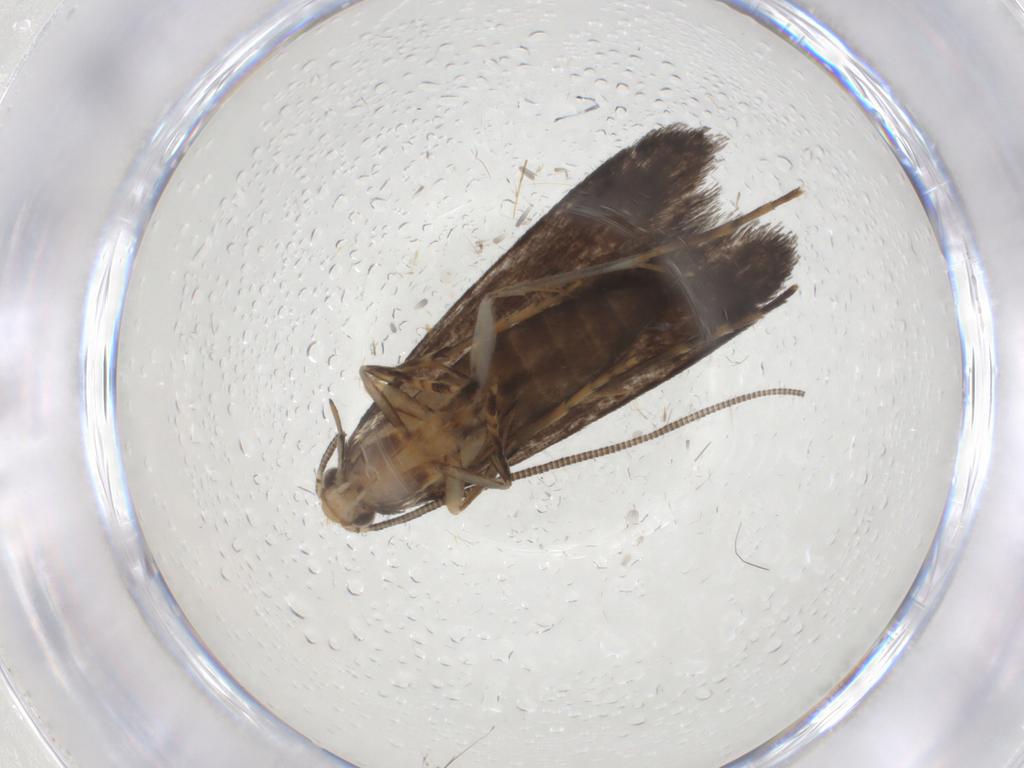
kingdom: Animalia
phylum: Arthropoda
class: Insecta
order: Lepidoptera
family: Tineidae
